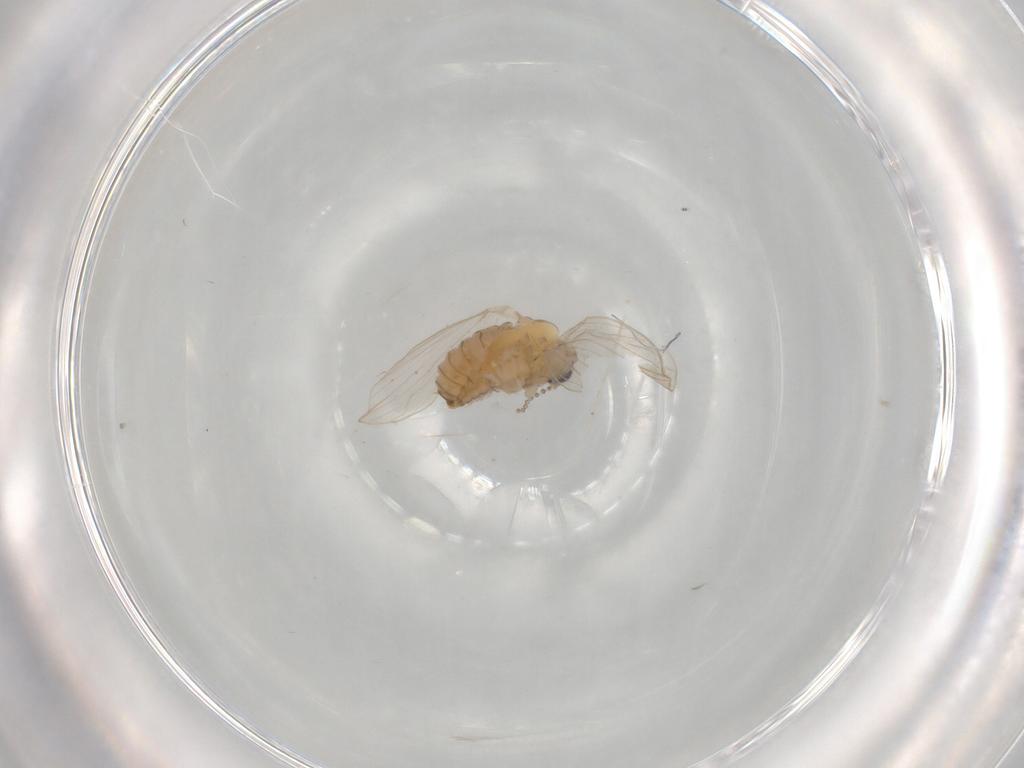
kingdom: Animalia
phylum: Arthropoda
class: Insecta
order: Diptera
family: Psychodidae
